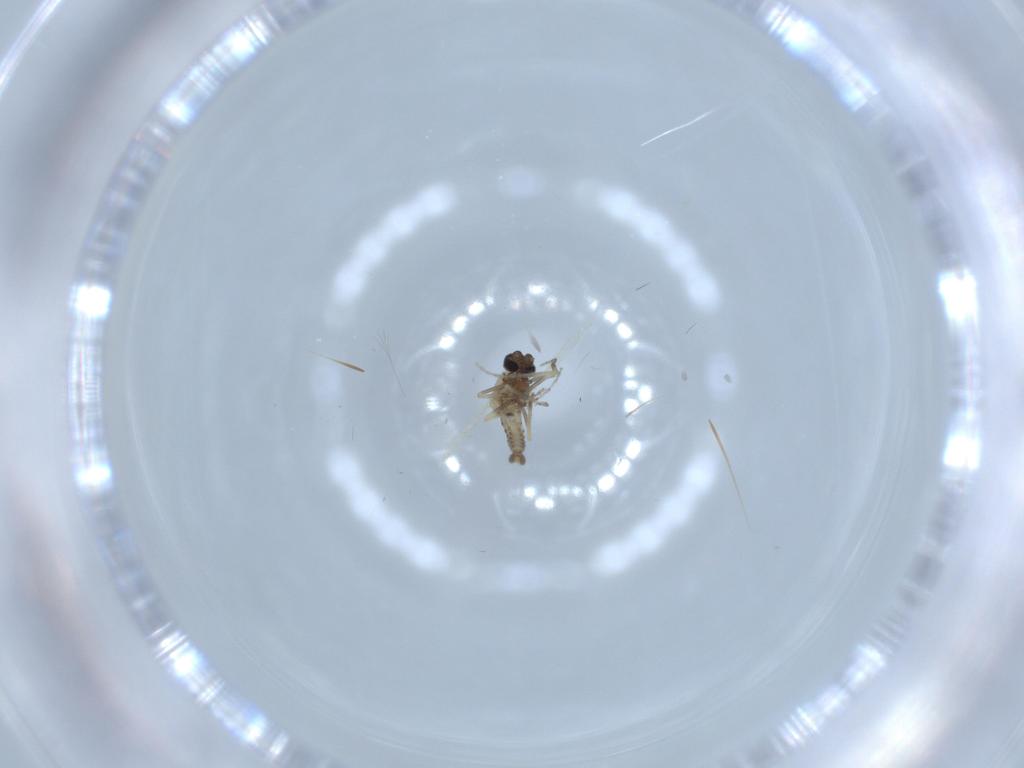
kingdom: Animalia
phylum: Arthropoda
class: Insecta
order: Diptera
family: Ceratopogonidae
